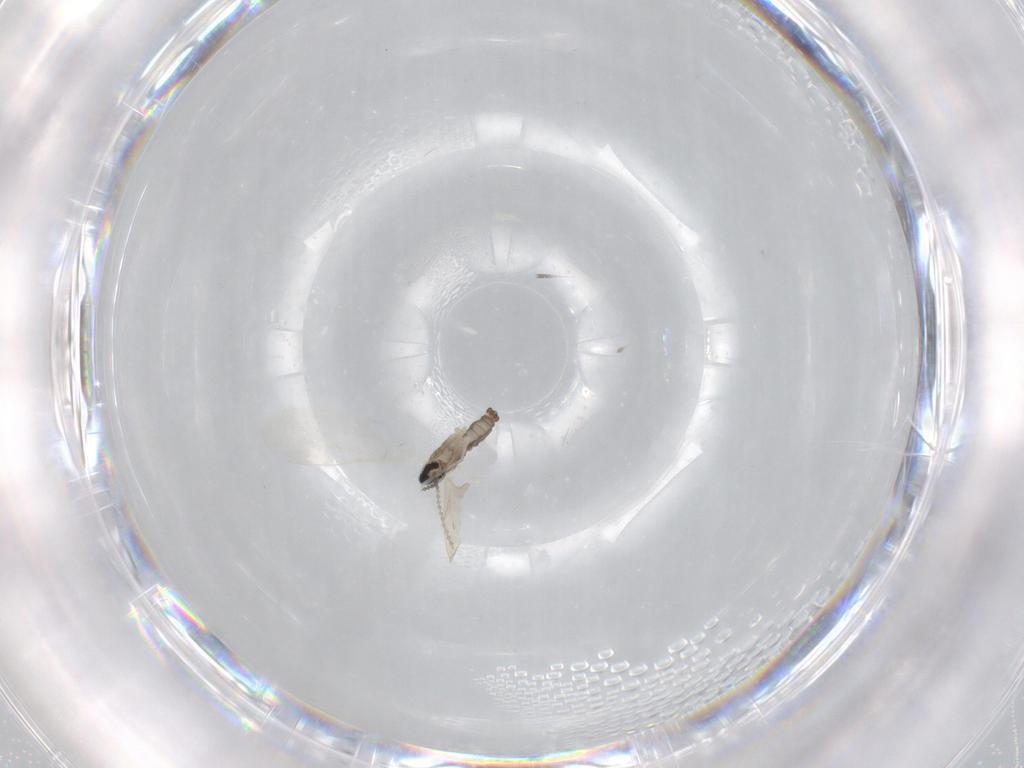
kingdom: Animalia
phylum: Arthropoda
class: Insecta
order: Diptera
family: Cecidomyiidae
